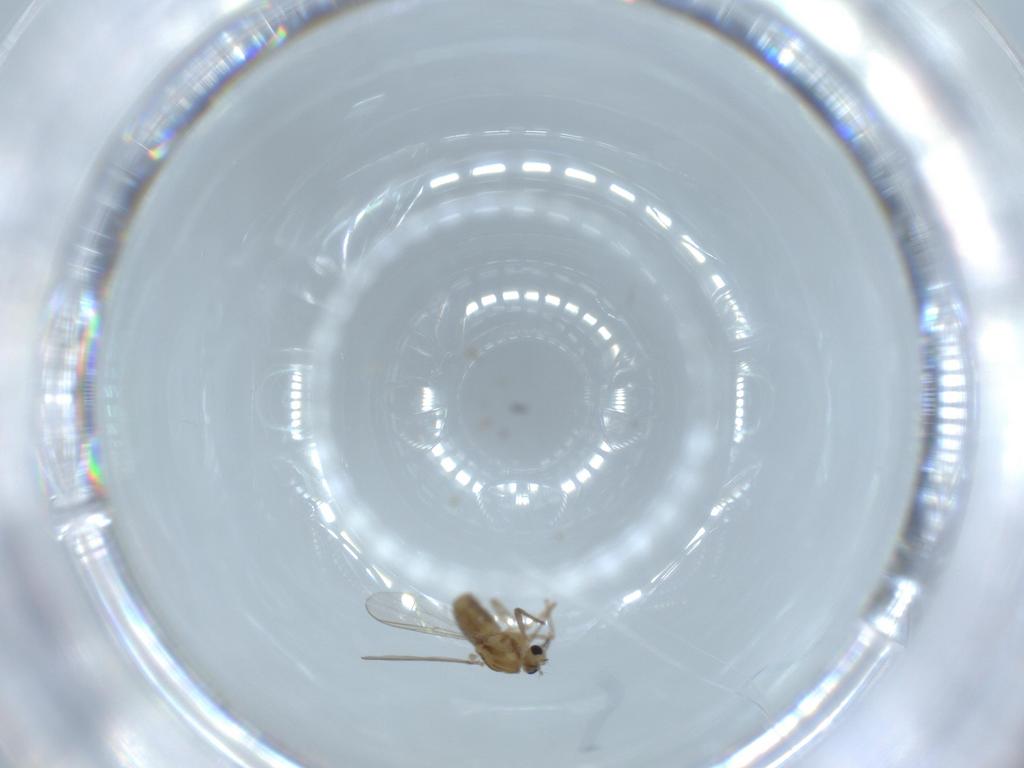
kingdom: Animalia
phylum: Arthropoda
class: Insecta
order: Diptera
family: Chironomidae
